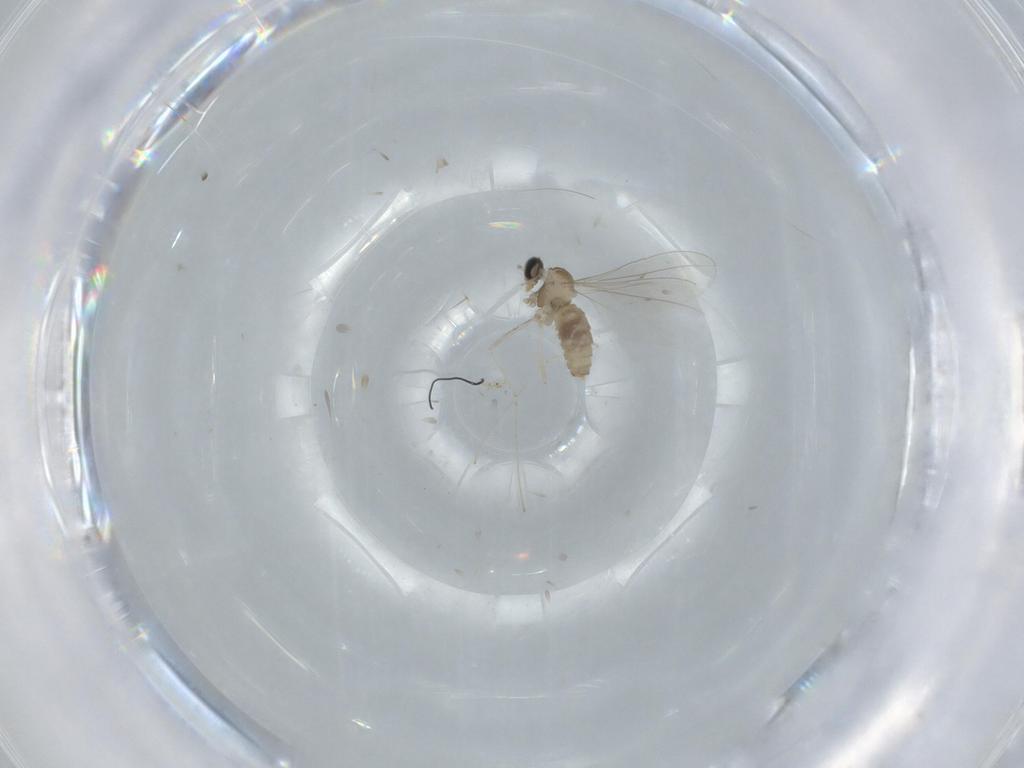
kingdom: Animalia
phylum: Arthropoda
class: Insecta
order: Diptera
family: Cecidomyiidae
